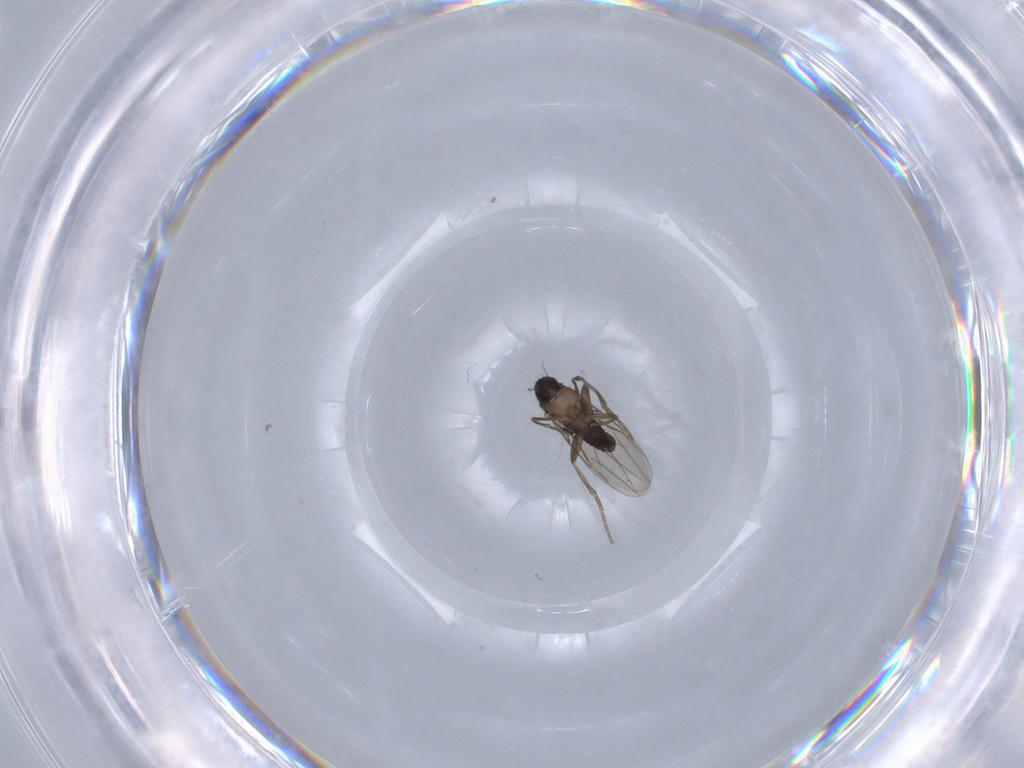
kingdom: Animalia
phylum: Arthropoda
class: Insecta
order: Diptera
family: Phoridae
